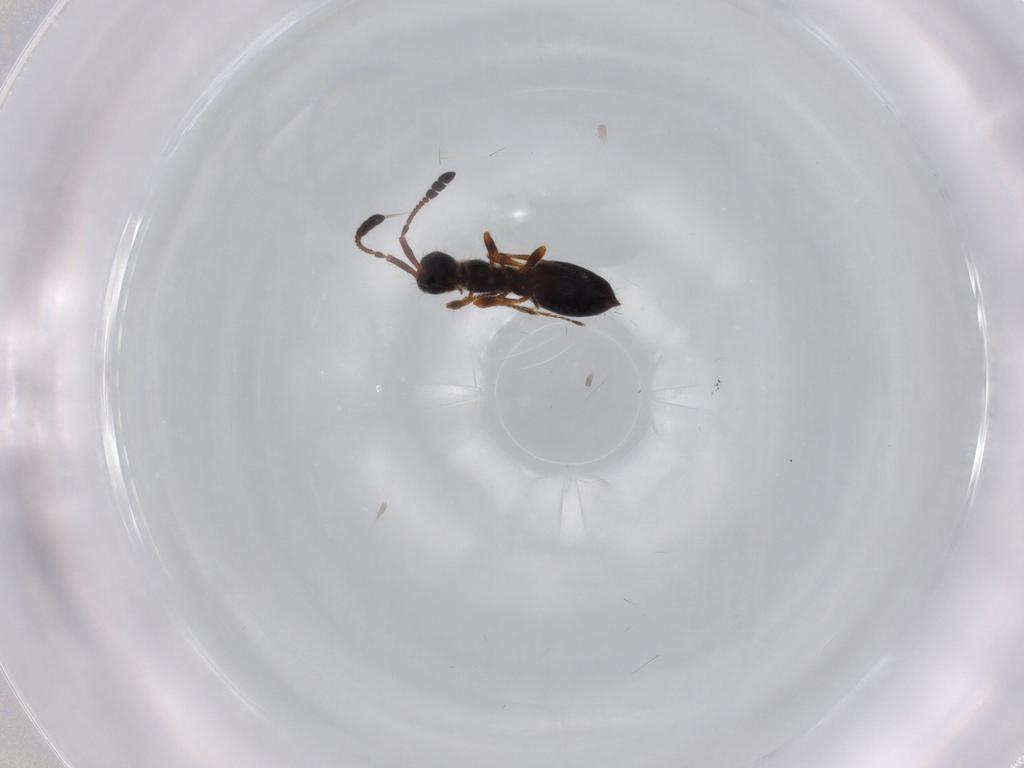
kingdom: Animalia
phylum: Arthropoda
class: Insecta
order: Hymenoptera
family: Diapriidae
